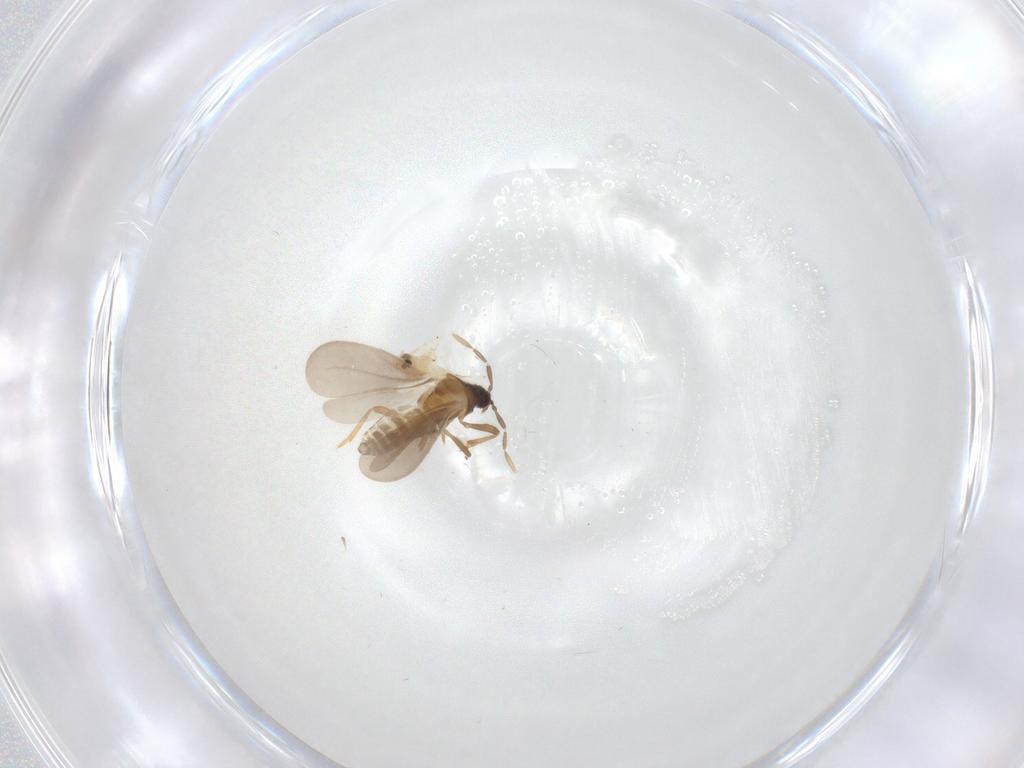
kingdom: Animalia
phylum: Arthropoda
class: Insecta
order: Hemiptera
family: Aleyrodidae
